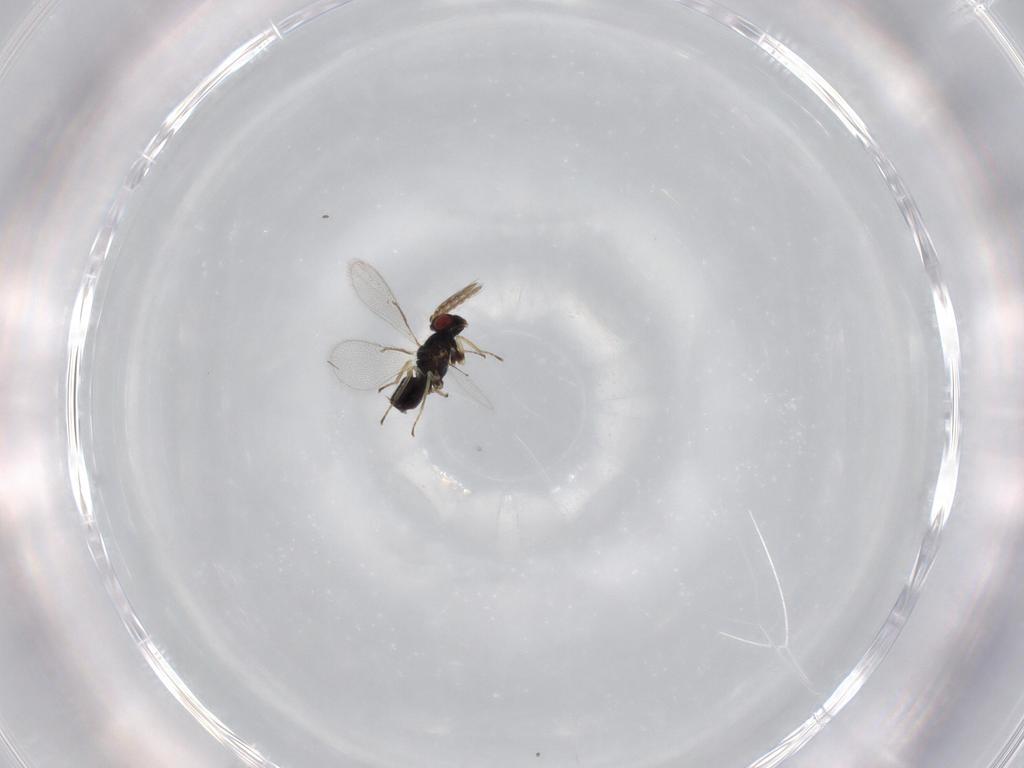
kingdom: Animalia
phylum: Arthropoda
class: Insecta
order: Hymenoptera
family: Eulophidae
